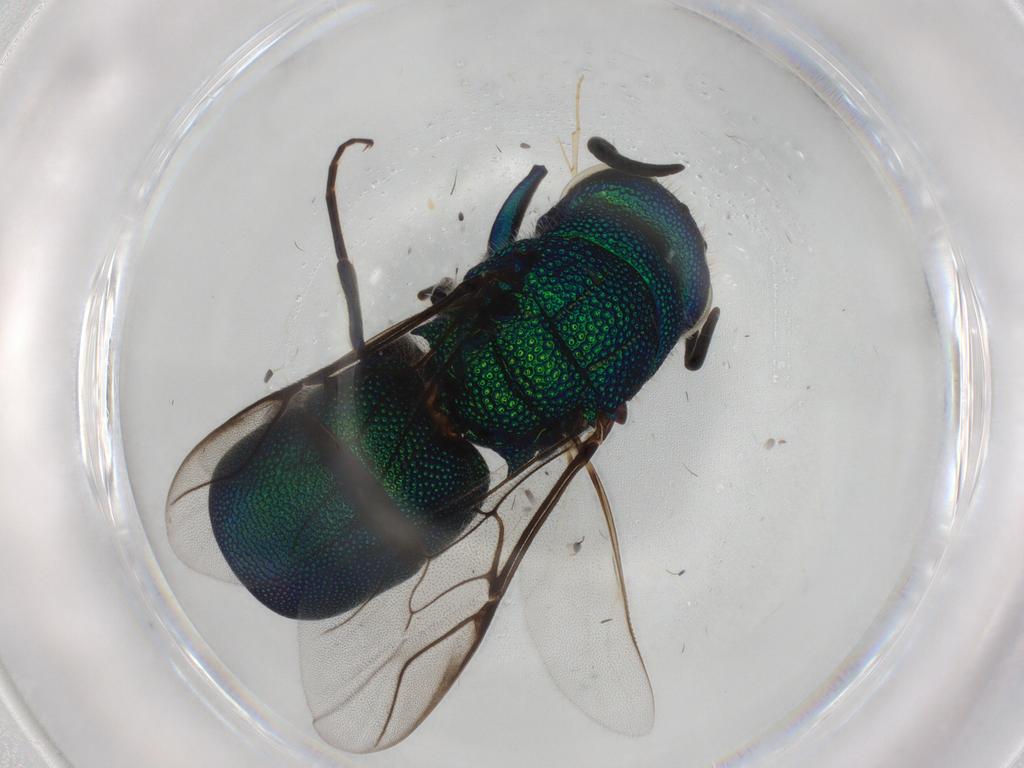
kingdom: Animalia
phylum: Arthropoda
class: Insecta
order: Hymenoptera
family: Chrysididae
